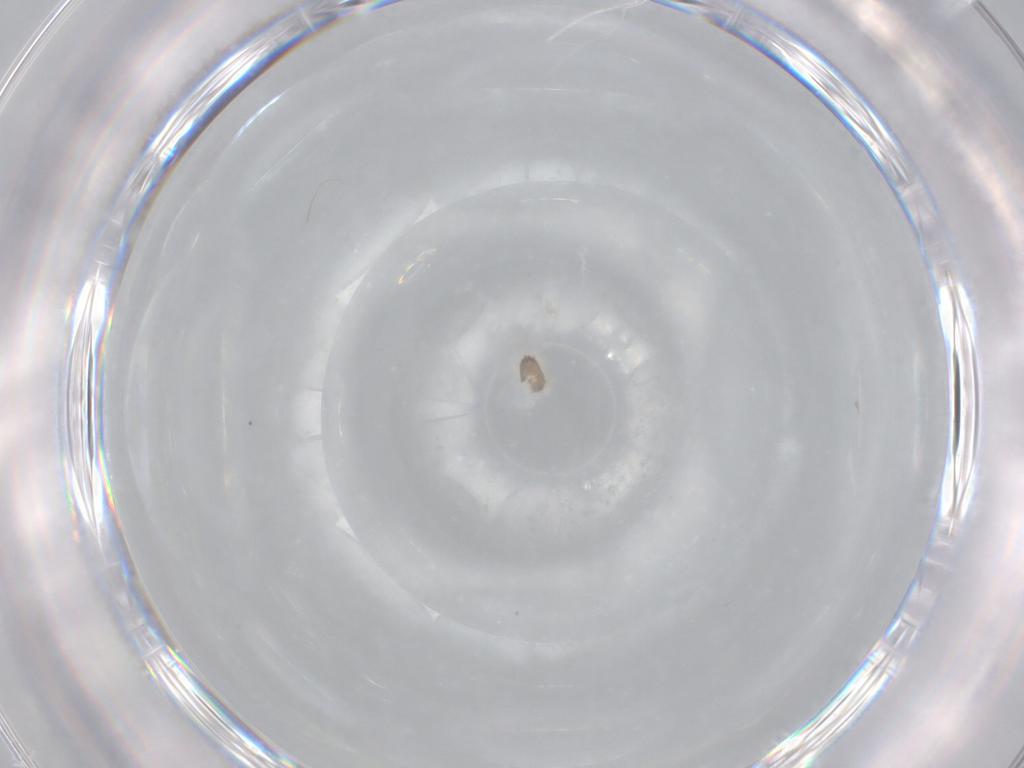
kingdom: Animalia
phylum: Arthropoda
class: Arachnida
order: Araneae
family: Linyphiidae
